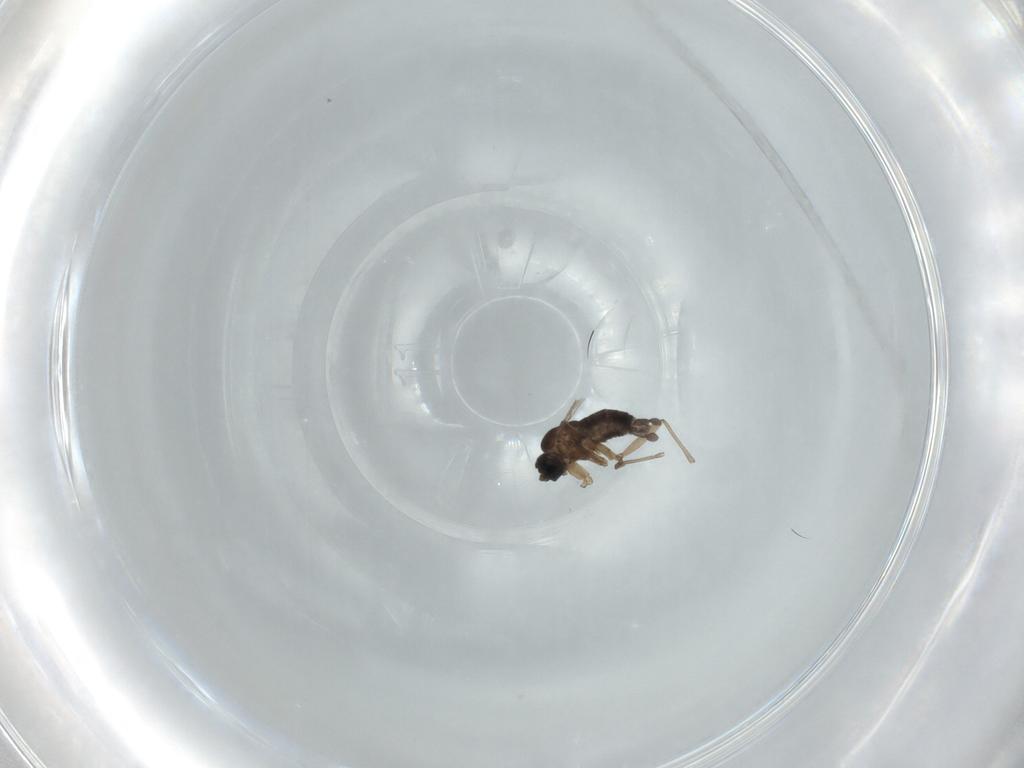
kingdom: Animalia
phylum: Arthropoda
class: Insecta
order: Diptera
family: Sciaridae
